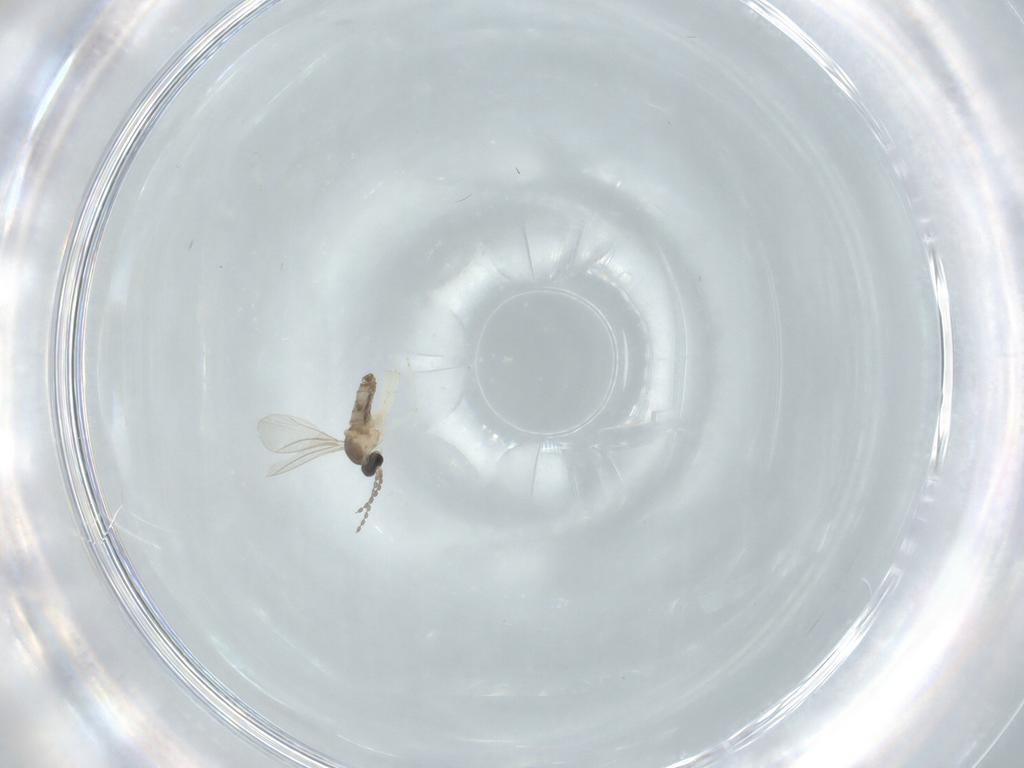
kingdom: Animalia
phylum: Arthropoda
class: Insecta
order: Diptera
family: Cecidomyiidae
